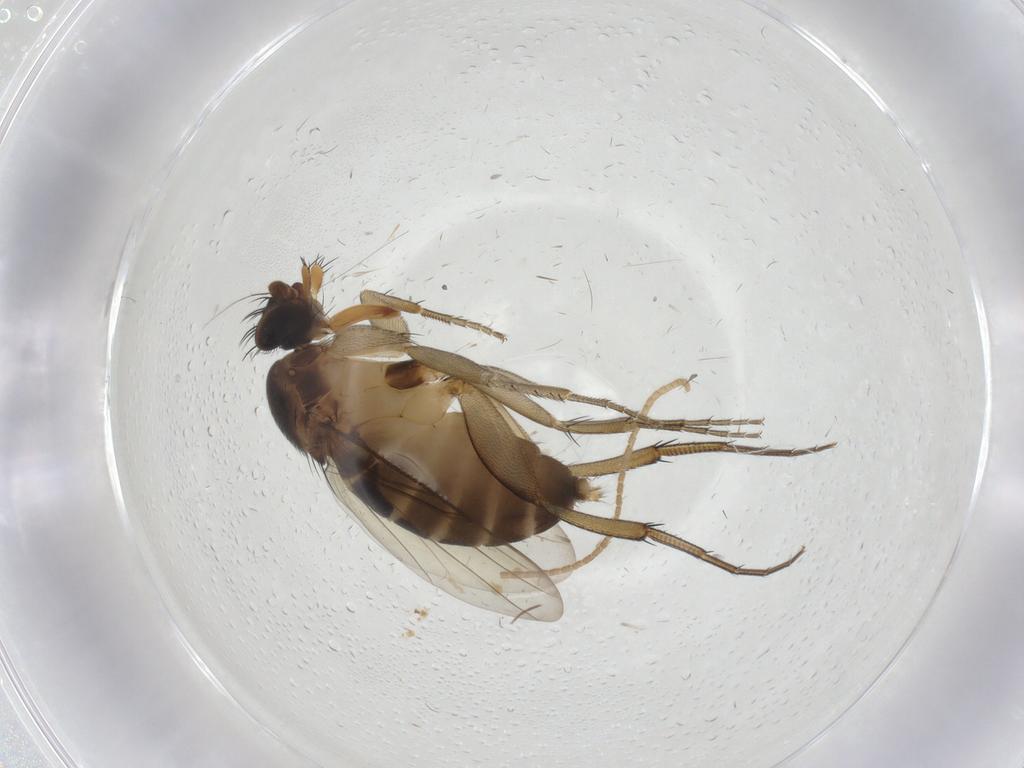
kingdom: Animalia
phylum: Arthropoda
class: Insecta
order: Diptera
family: Phoridae
